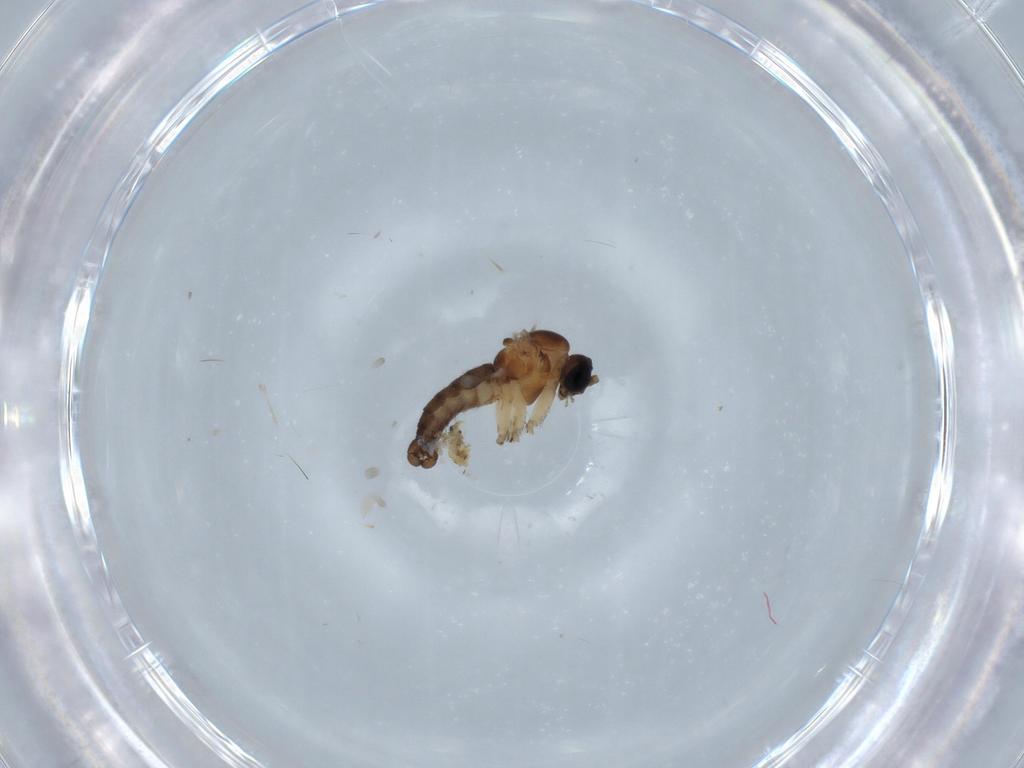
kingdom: Animalia
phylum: Arthropoda
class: Insecta
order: Diptera
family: Sciaridae
